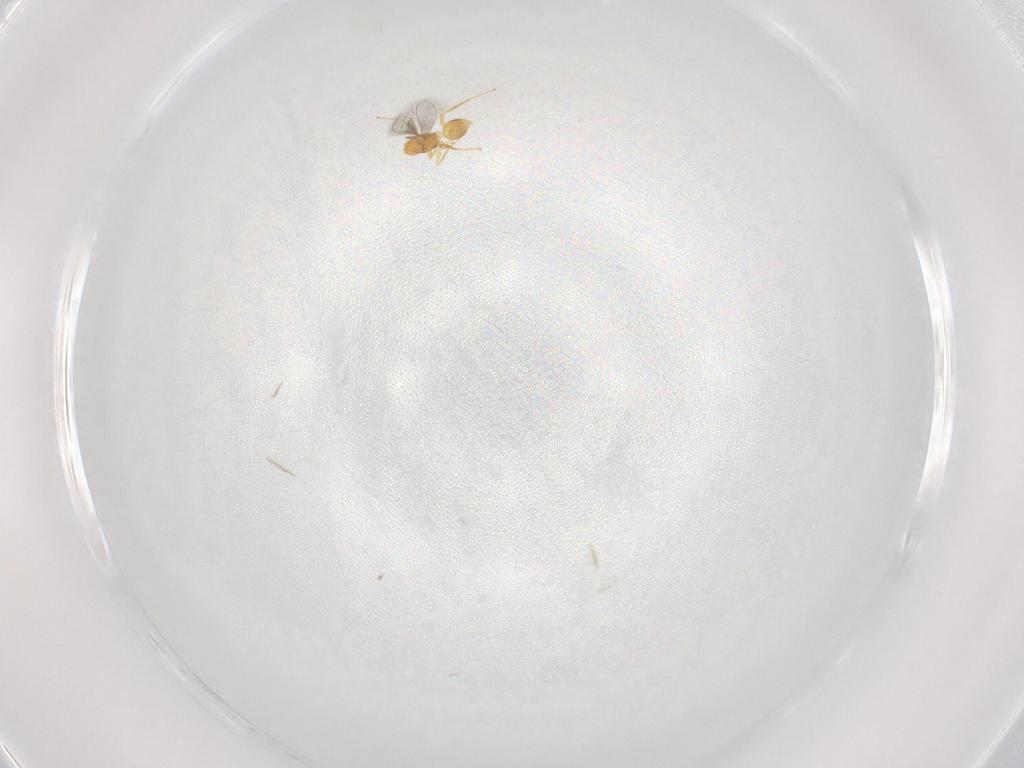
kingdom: Animalia
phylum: Arthropoda
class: Insecta
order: Hymenoptera
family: Mymaridae
